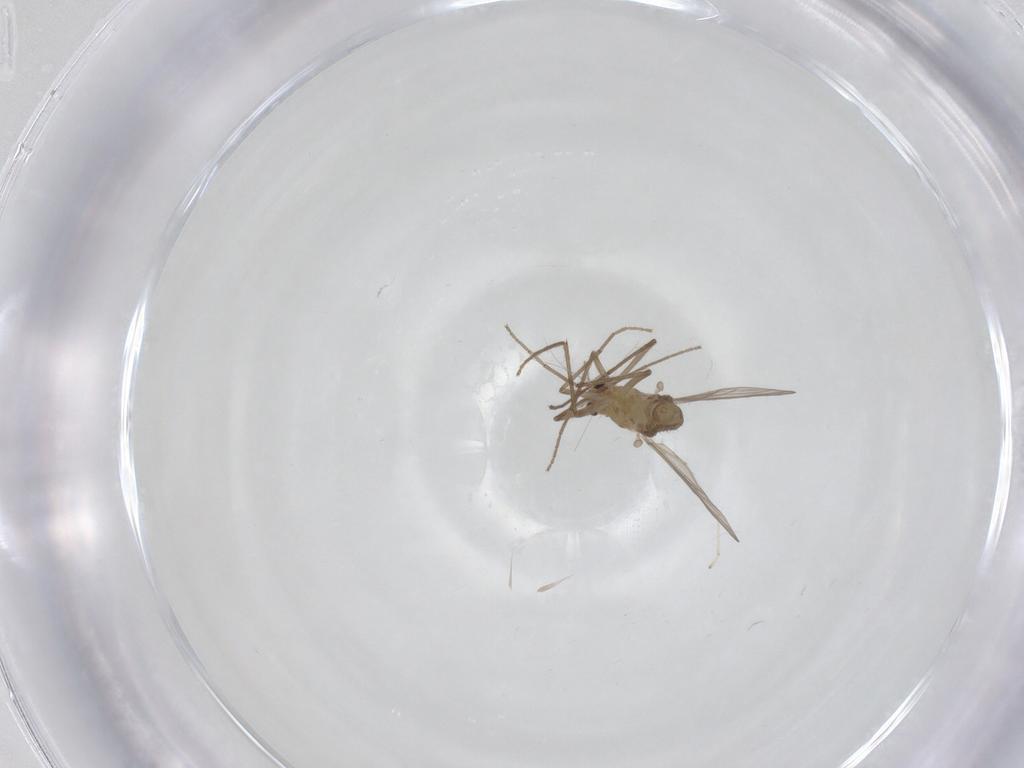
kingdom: Animalia
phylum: Arthropoda
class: Insecta
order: Diptera
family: Chironomidae
